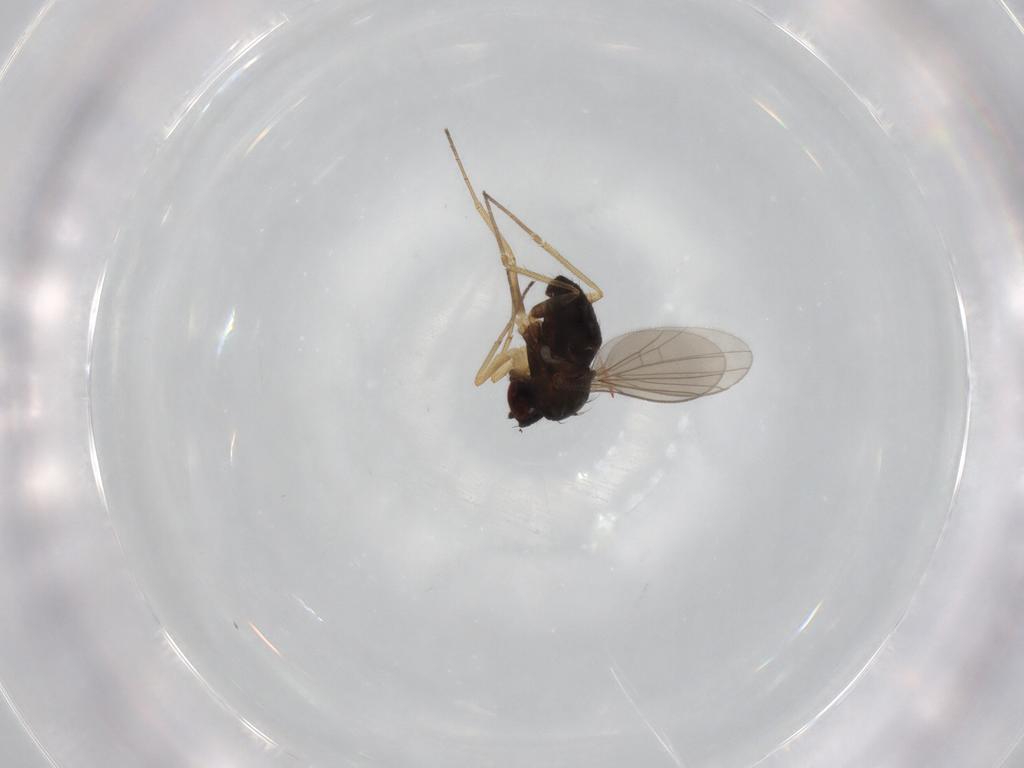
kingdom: Animalia
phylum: Arthropoda
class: Insecta
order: Diptera
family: Dolichopodidae
